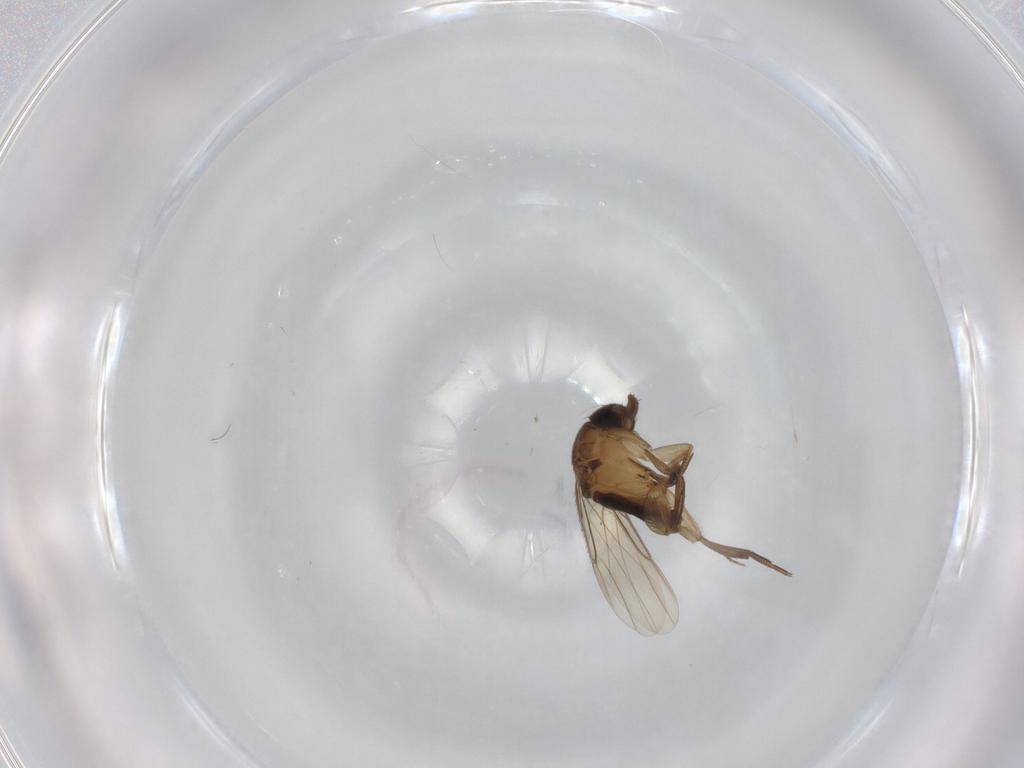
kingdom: Animalia
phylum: Arthropoda
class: Insecta
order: Diptera
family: Phoridae
